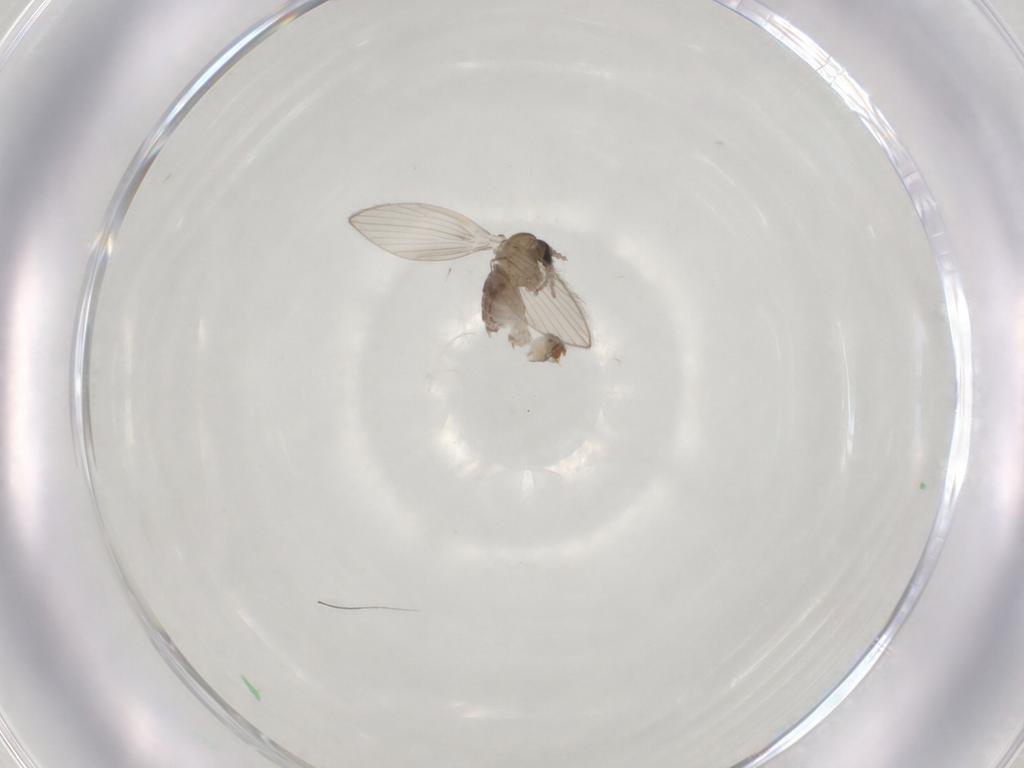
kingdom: Animalia
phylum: Arthropoda
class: Insecta
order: Diptera
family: Psychodidae
